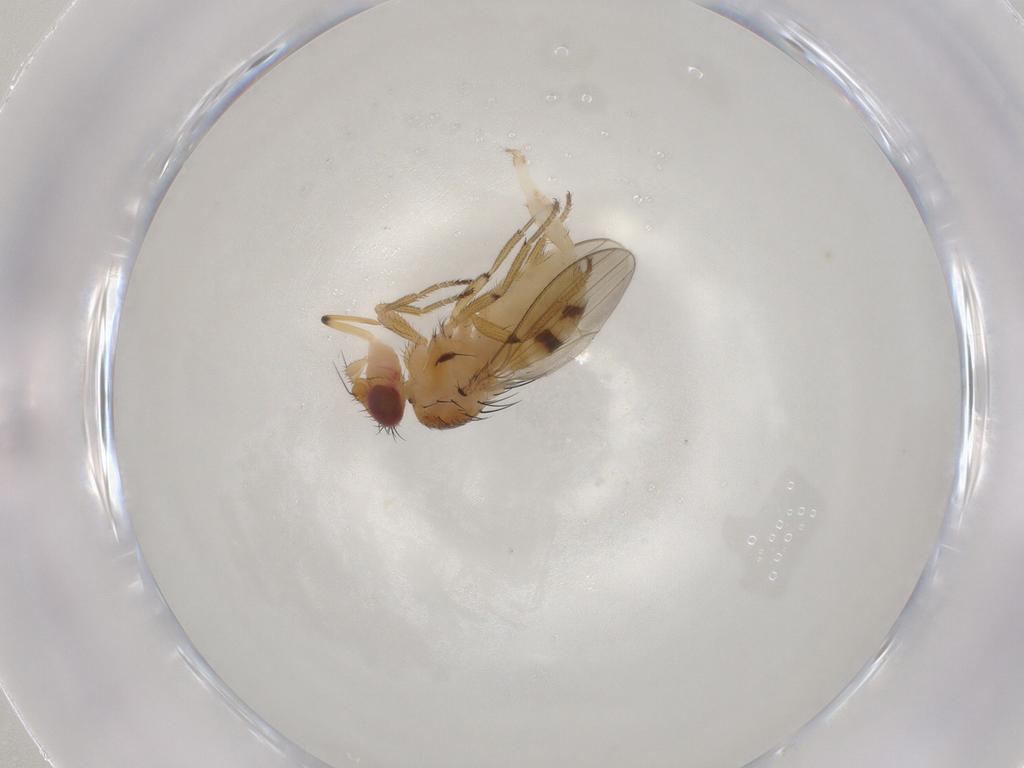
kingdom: Animalia
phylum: Arthropoda
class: Insecta
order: Diptera
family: Milichiidae
